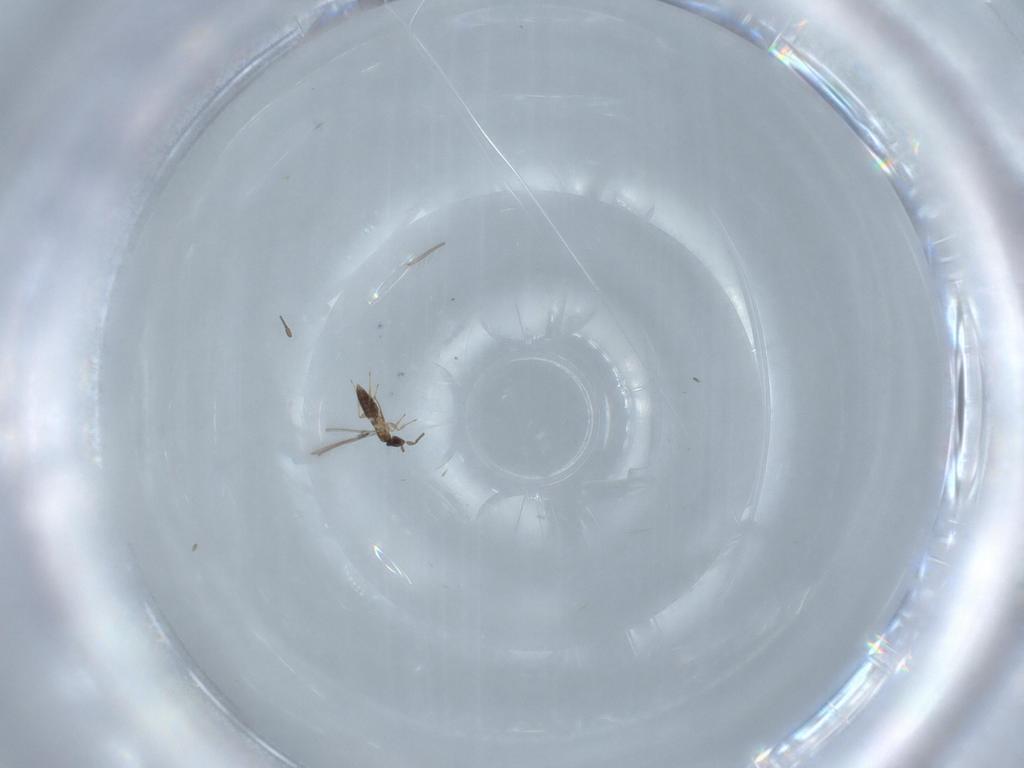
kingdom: Animalia
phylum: Arthropoda
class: Insecta
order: Hymenoptera
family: Mymaridae
